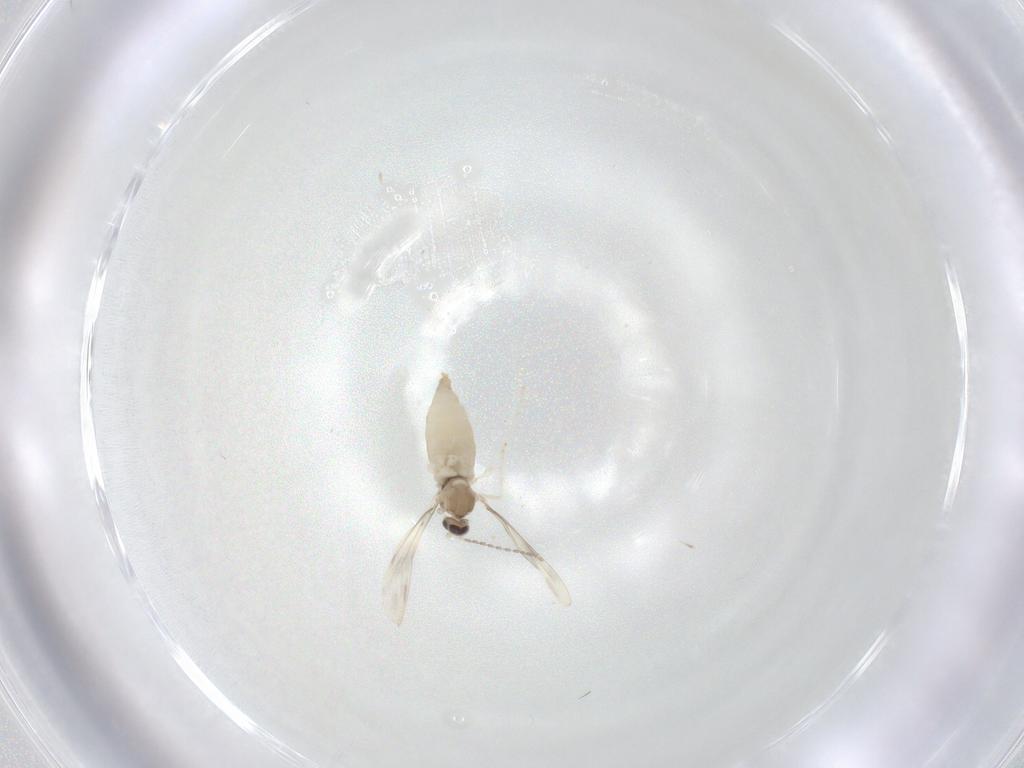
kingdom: Animalia
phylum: Arthropoda
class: Insecta
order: Diptera
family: Cecidomyiidae
